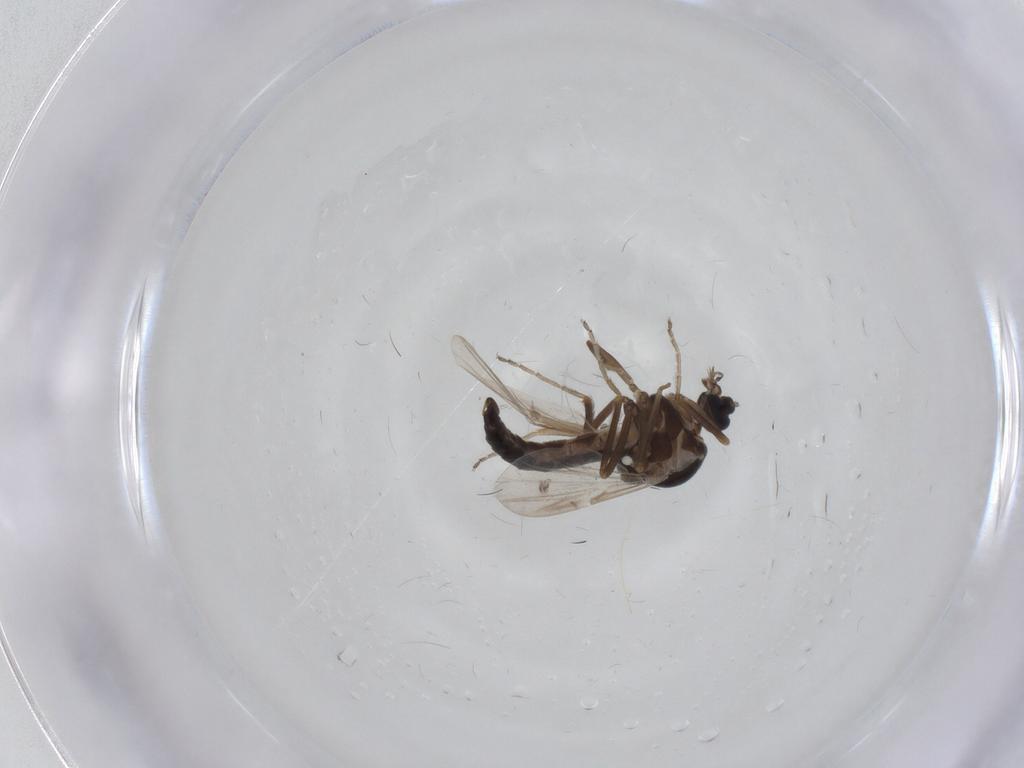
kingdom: Animalia
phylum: Arthropoda
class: Insecta
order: Diptera
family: Ceratopogonidae
